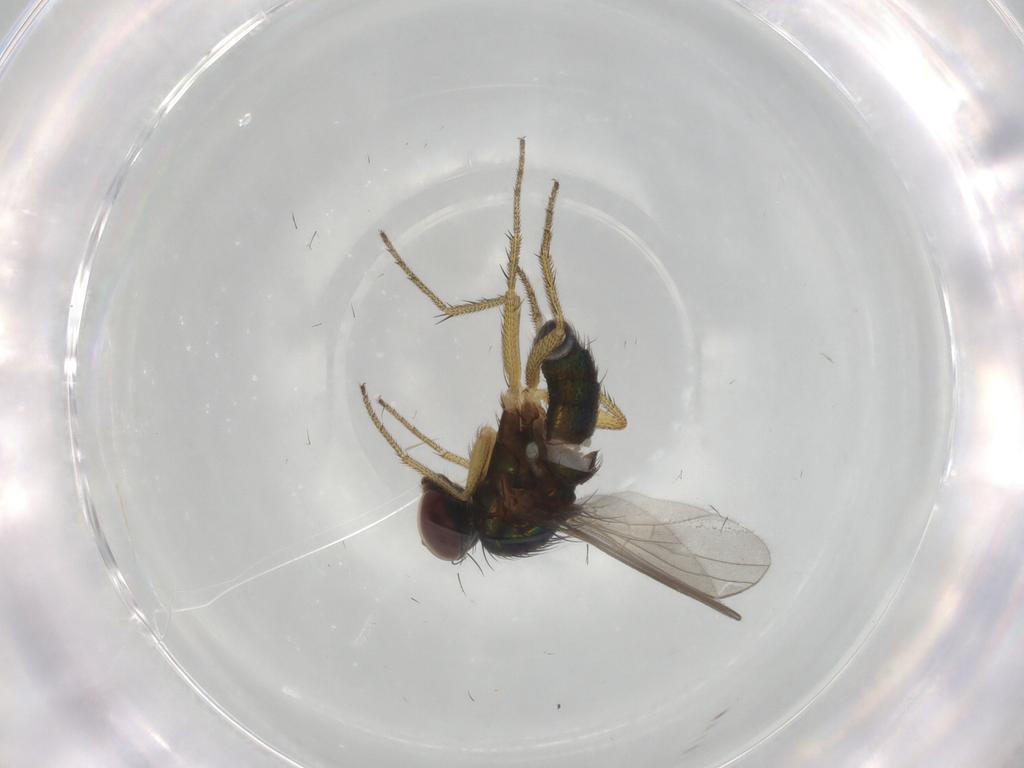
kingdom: Animalia
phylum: Arthropoda
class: Insecta
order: Diptera
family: Dolichopodidae
